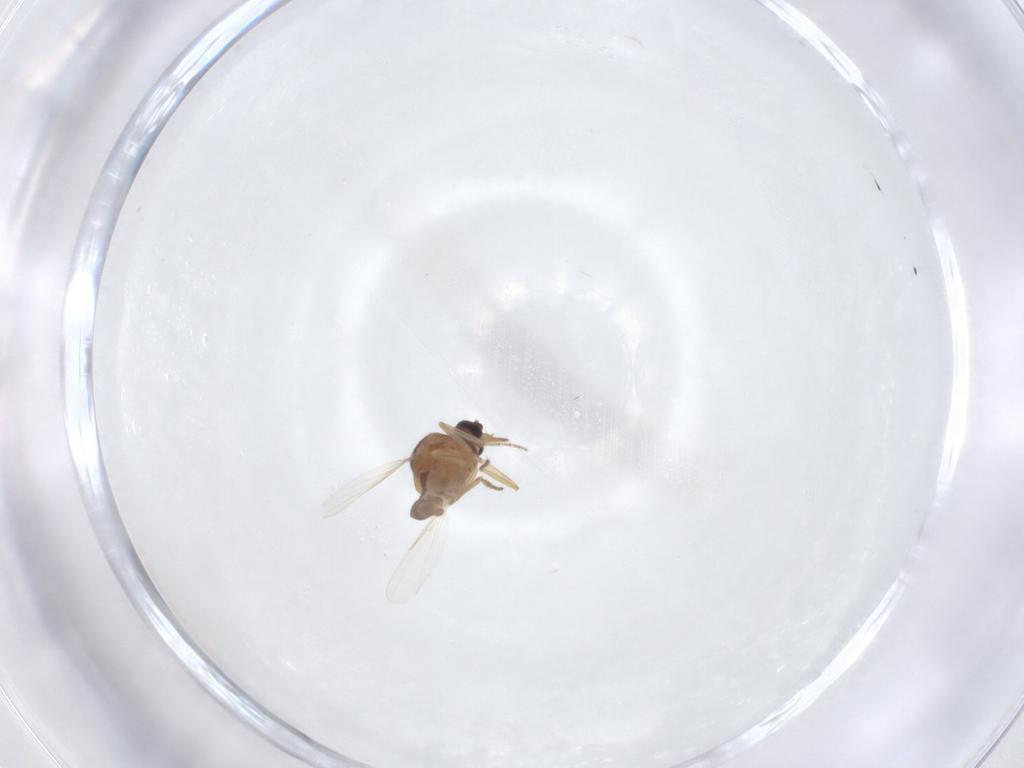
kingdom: Animalia
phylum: Arthropoda
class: Insecta
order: Diptera
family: Ceratopogonidae
